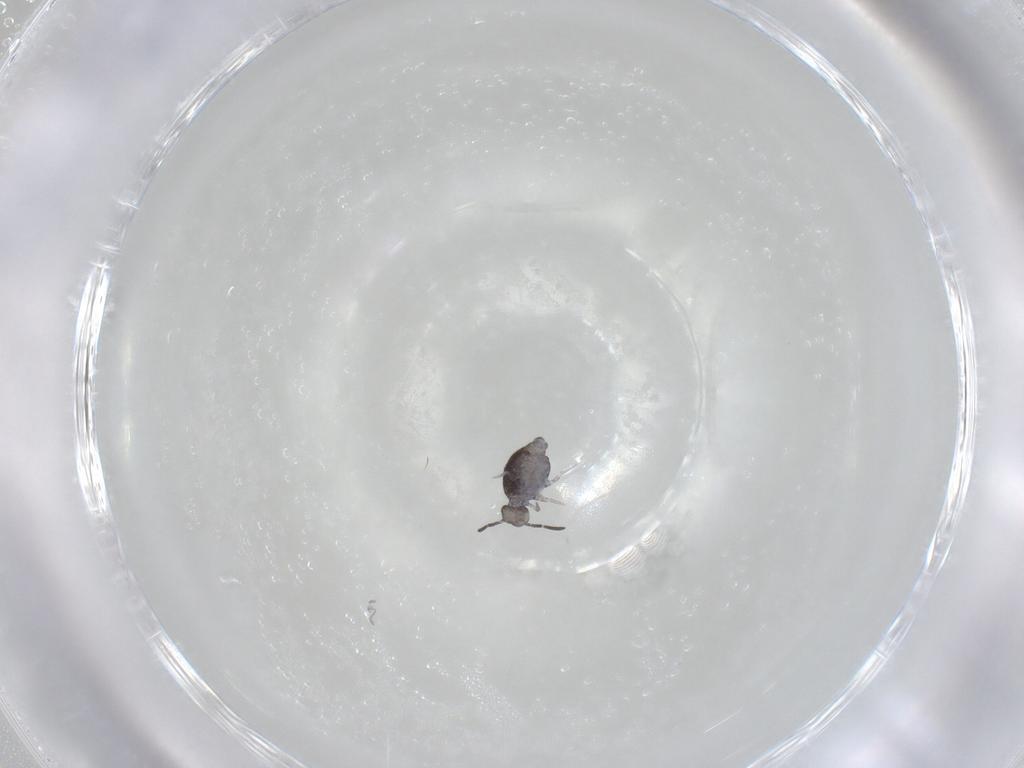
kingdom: Animalia
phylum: Arthropoda
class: Collembola
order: Symphypleona
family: Katiannidae
